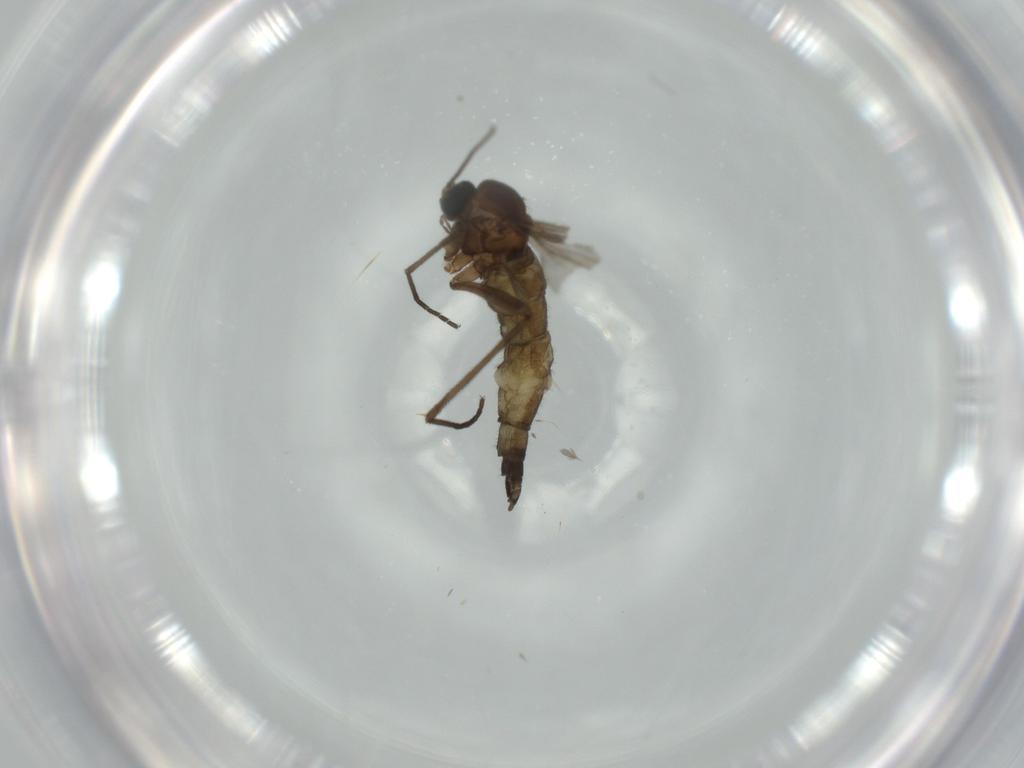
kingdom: Animalia
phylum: Arthropoda
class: Insecta
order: Diptera
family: Sciaridae
